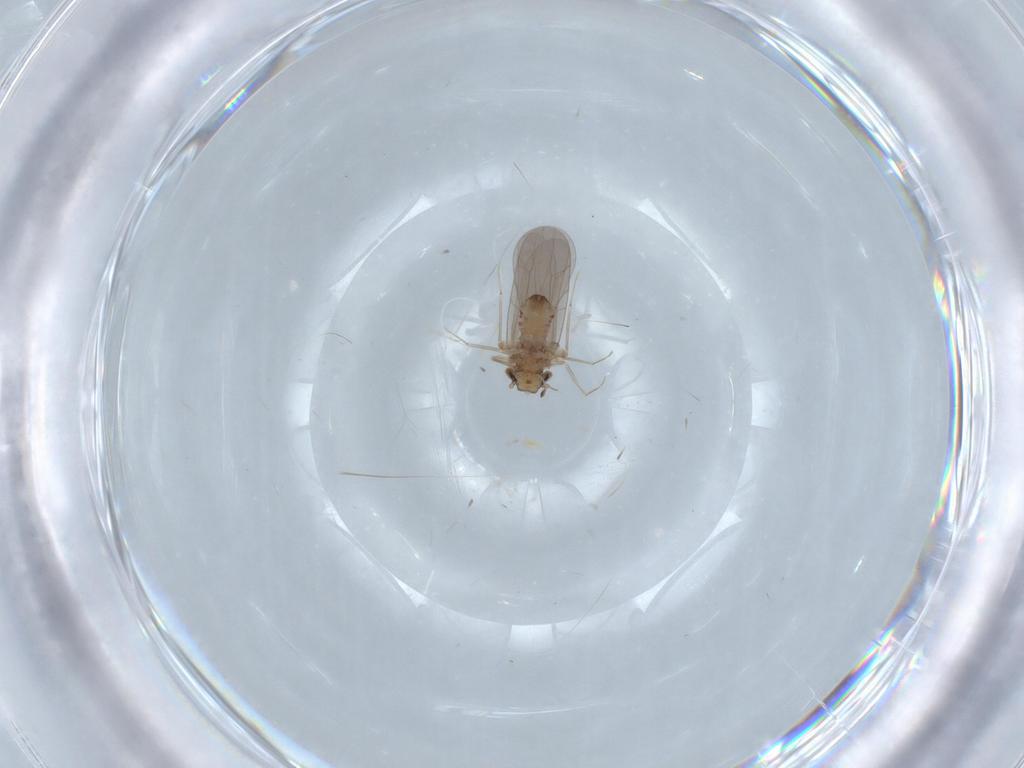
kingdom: Animalia
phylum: Arthropoda
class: Insecta
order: Psocodea
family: Myopsocidae
